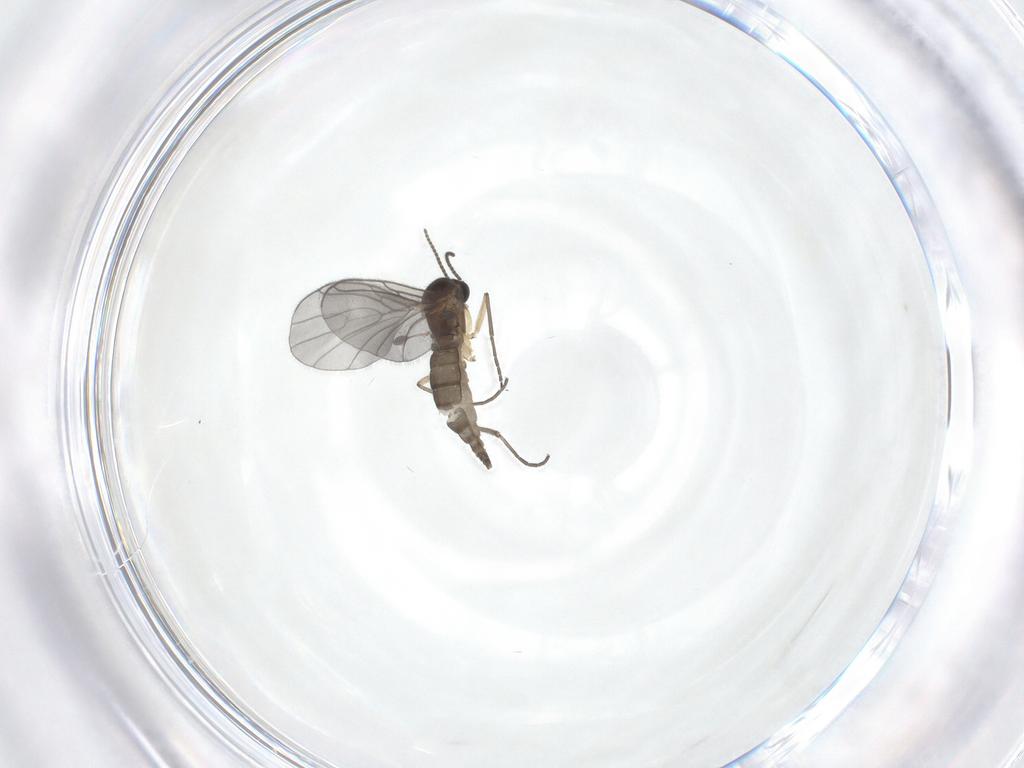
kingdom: Animalia
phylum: Arthropoda
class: Insecta
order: Diptera
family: Sciaridae
